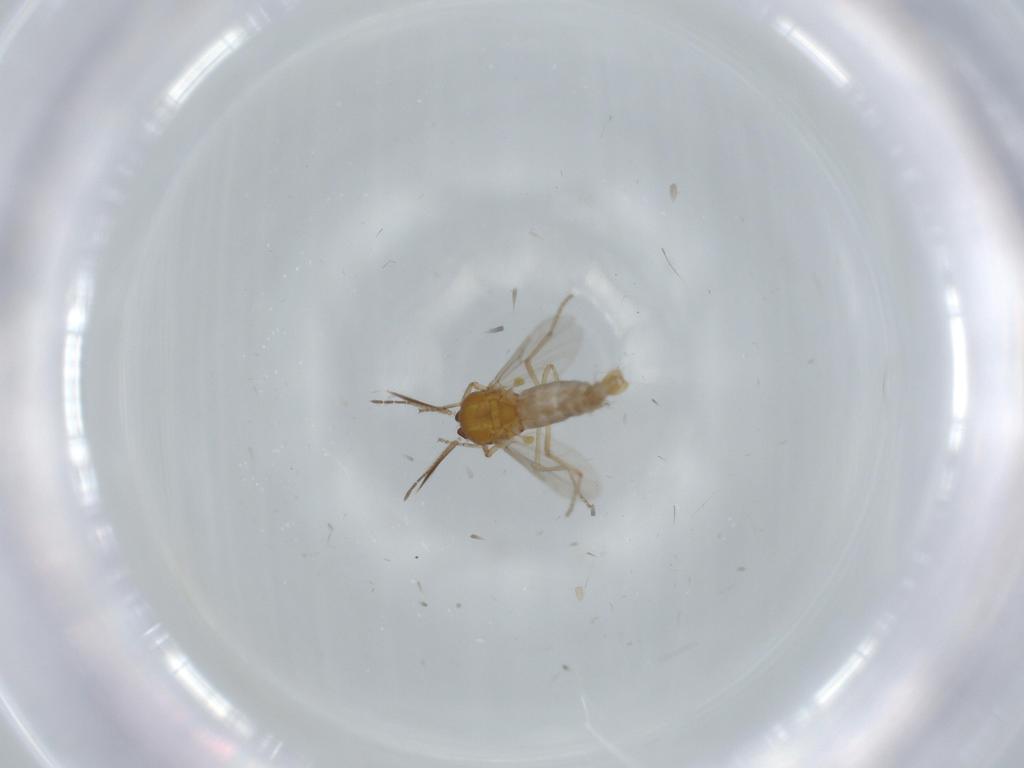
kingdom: Animalia
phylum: Arthropoda
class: Insecta
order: Diptera
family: Ceratopogonidae
